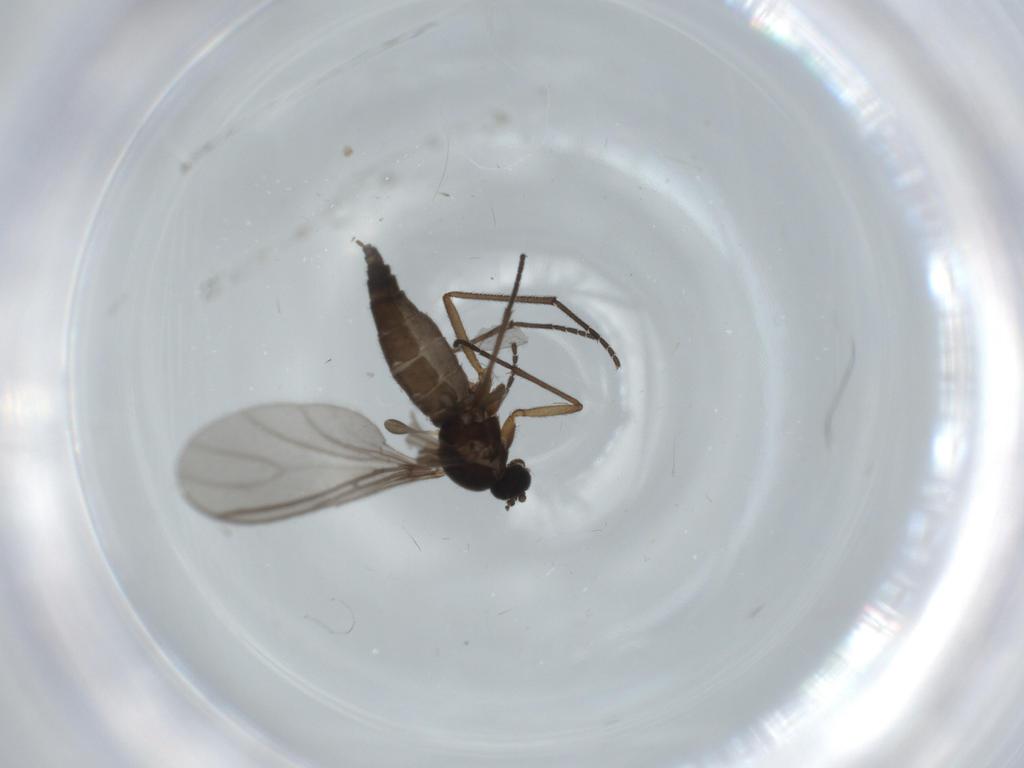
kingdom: Animalia
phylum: Arthropoda
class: Insecta
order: Diptera
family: Sciaridae
